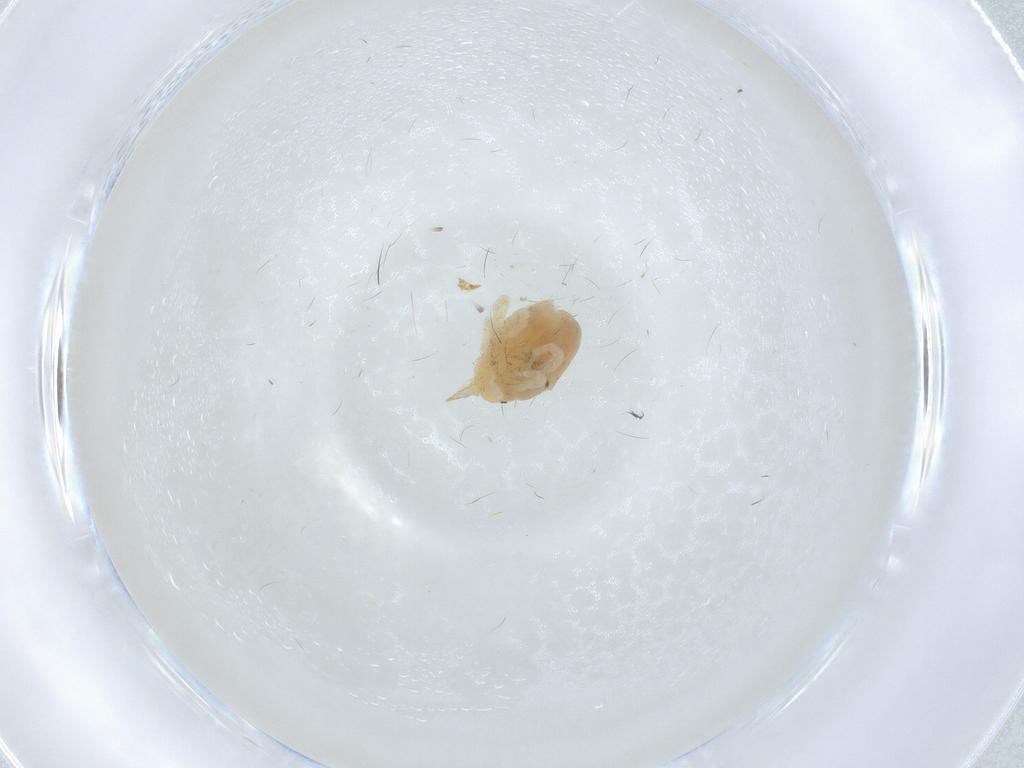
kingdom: Animalia
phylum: Arthropoda
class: Arachnida
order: Trombidiformes
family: Bdellidae
